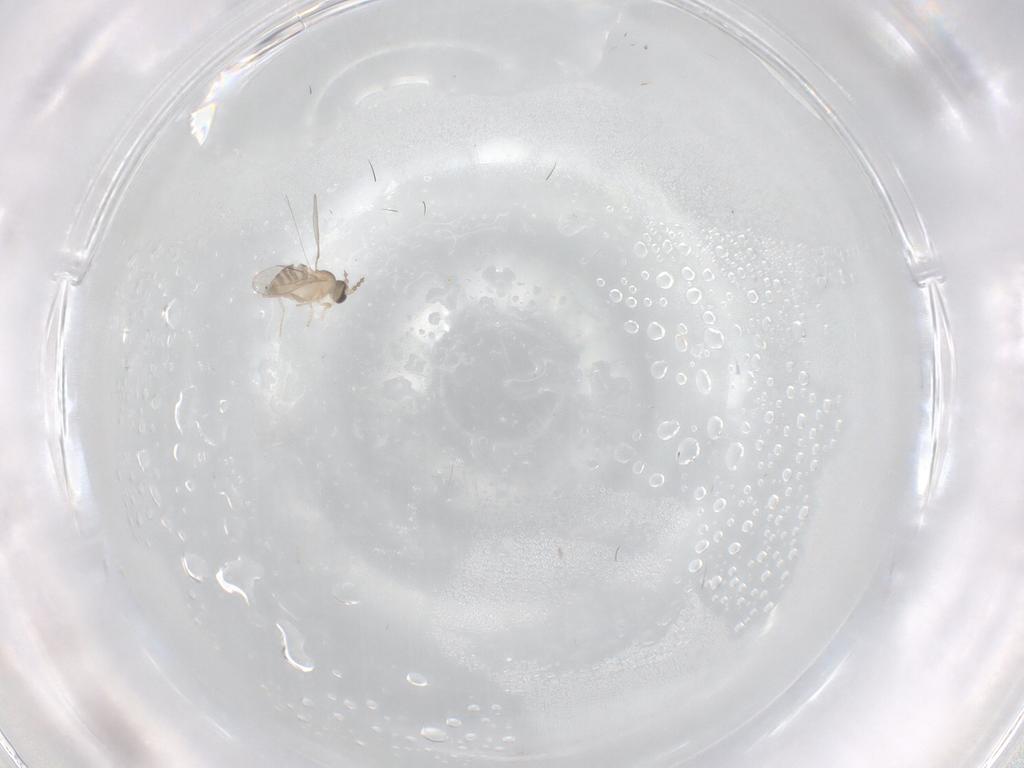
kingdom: Animalia
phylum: Arthropoda
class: Insecta
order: Diptera
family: Cecidomyiidae
